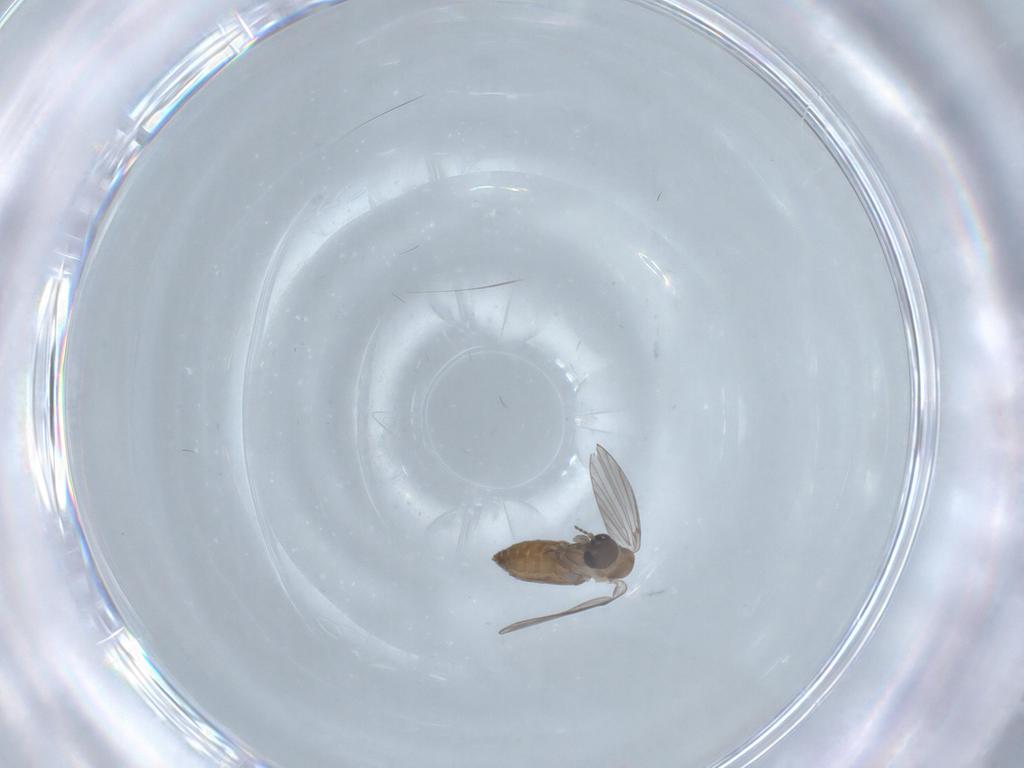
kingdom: Animalia
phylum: Arthropoda
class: Insecta
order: Diptera
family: Psychodidae
